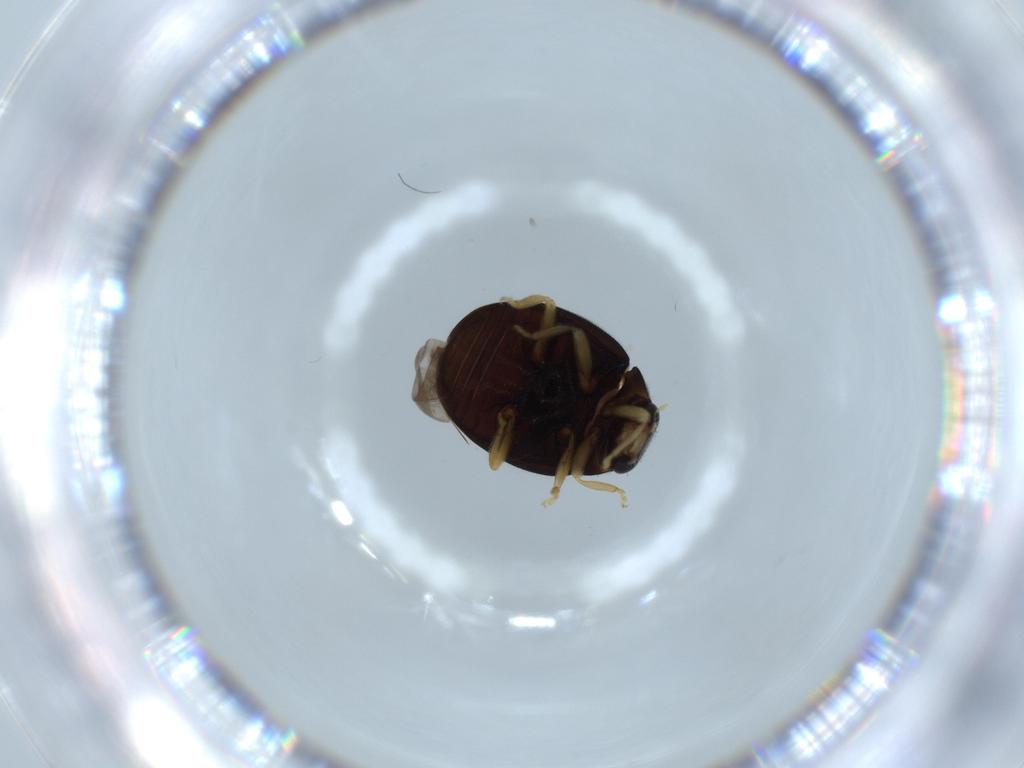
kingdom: Animalia
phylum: Arthropoda
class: Insecta
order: Coleoptera
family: Coccinellidae
